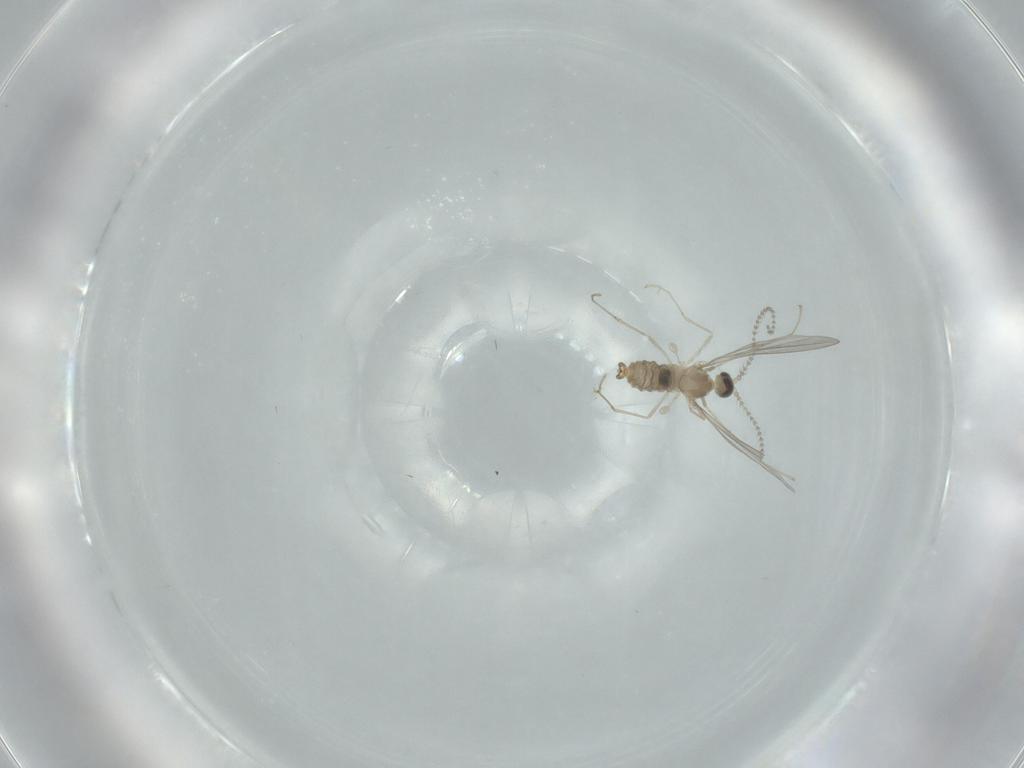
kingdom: Animalia
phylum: Arthropoda
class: Insecta
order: Diptera
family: Cecidomyiidae
